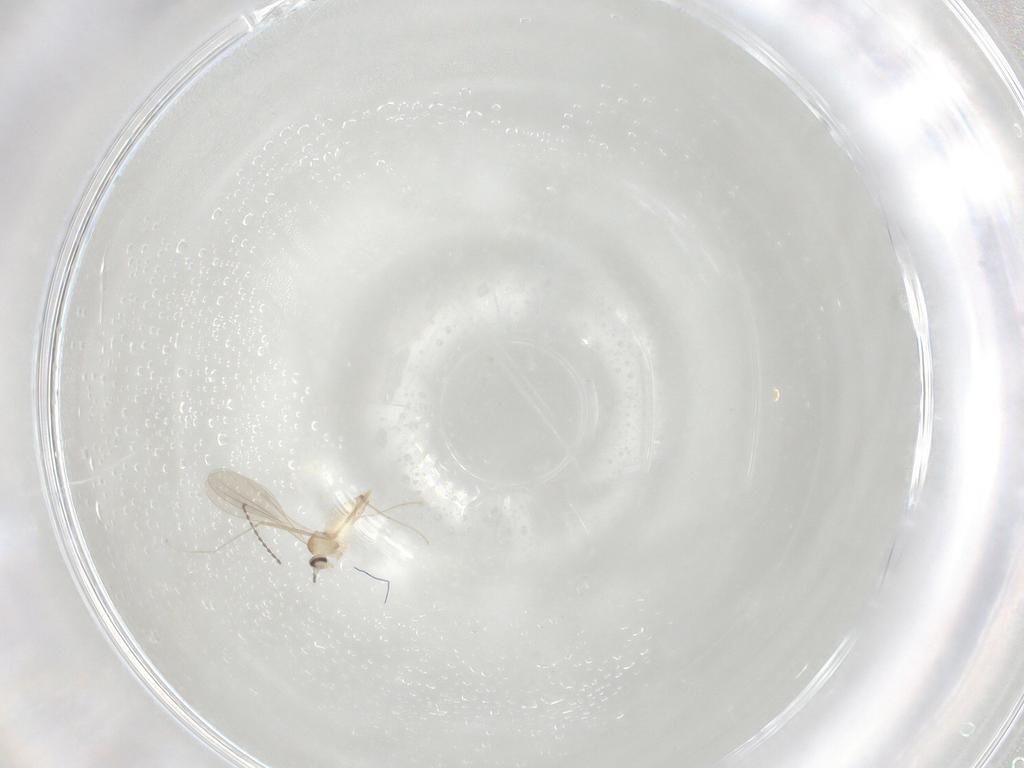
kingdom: Animalia
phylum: Arthropoda
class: Insecta
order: Diptera
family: Cecidomyiidae
